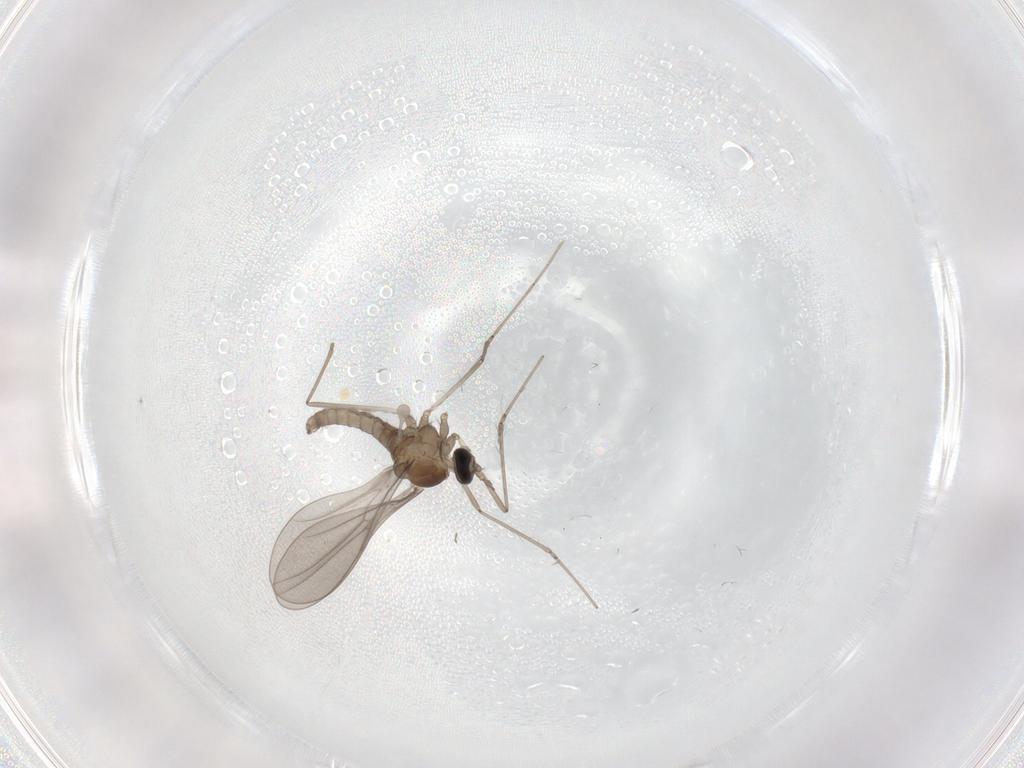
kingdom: Animalia
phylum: Arthropoda
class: Insecta
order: Diptera
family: Cecidomyiidae
